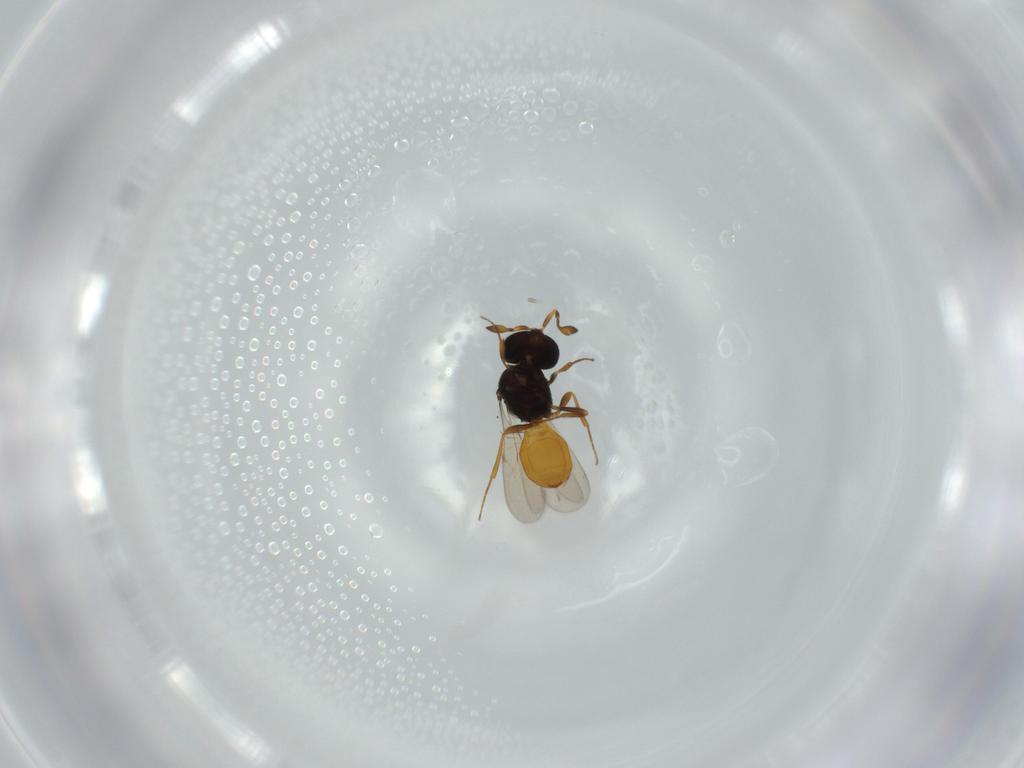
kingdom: Animalia
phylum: Arthropoda
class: Insecta
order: Hymenoptera
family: Scelionidae
